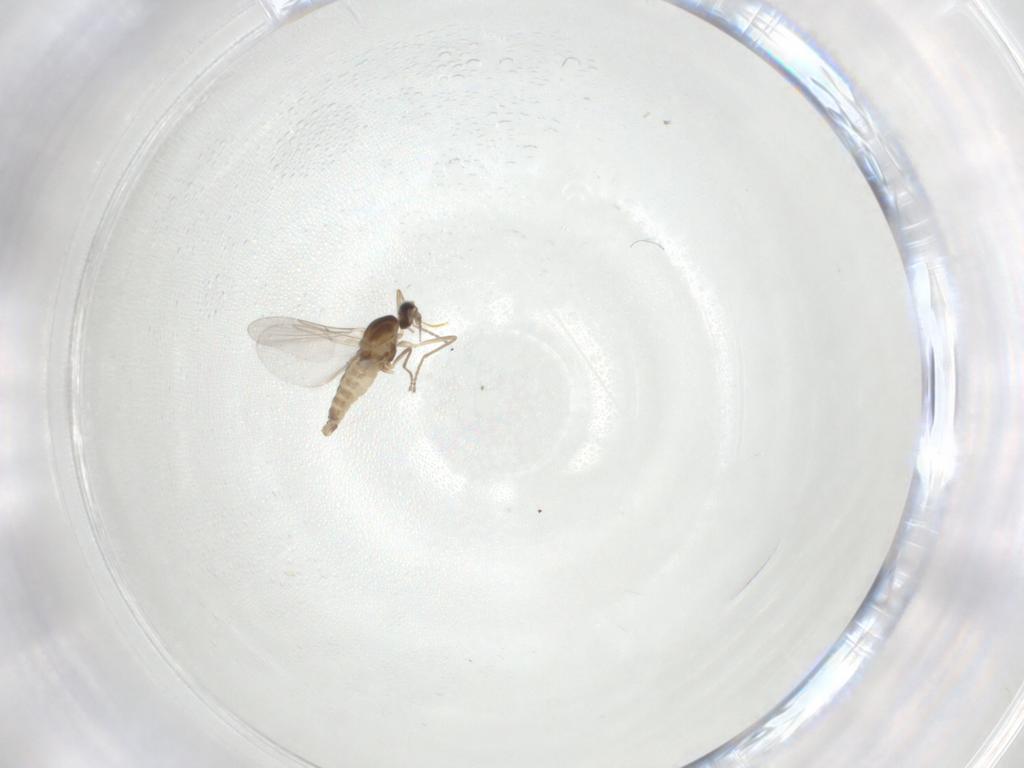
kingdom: Animalia
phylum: Arthropoda
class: Insecta
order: Diptera
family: Cecidomyiidae
